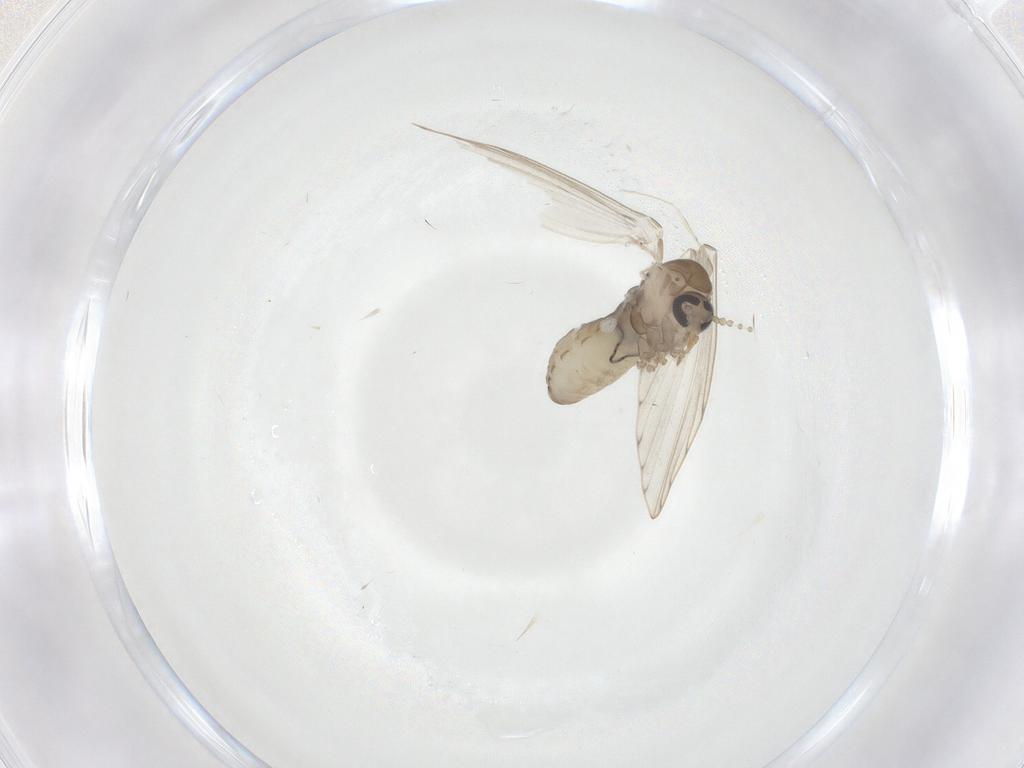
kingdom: Animalia
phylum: Arthropoda
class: Insecta
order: Diptera
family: Psychodidae
